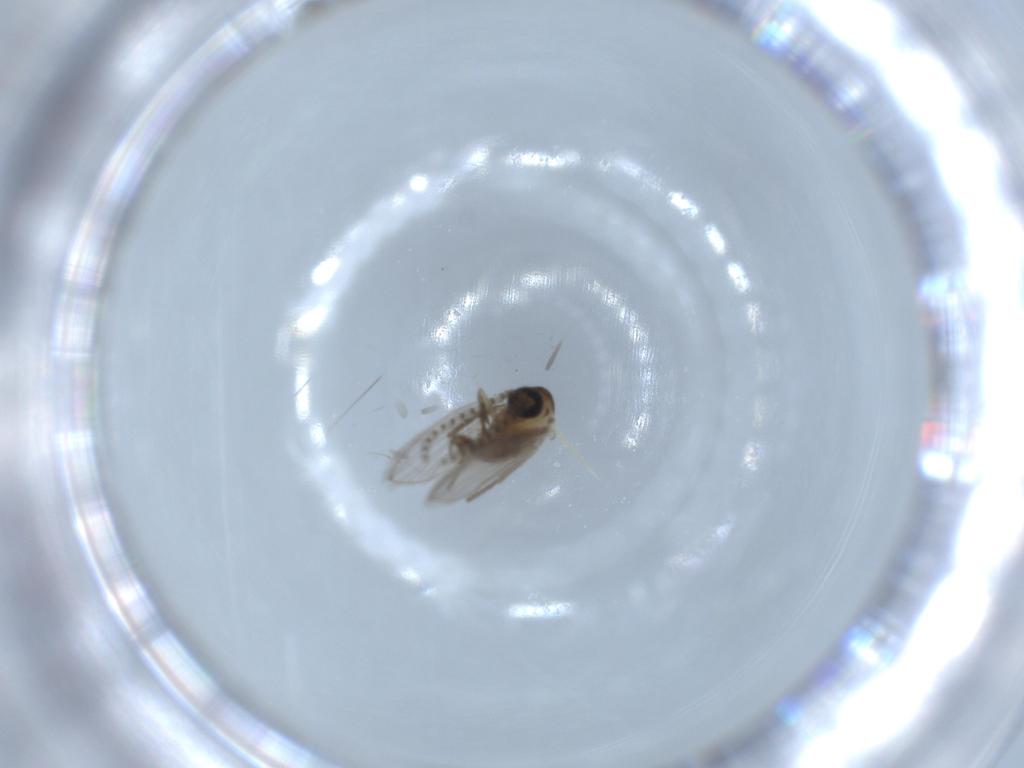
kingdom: Animalia
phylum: Arthropoda
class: Insecta
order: Diptera
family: Psychodidae
